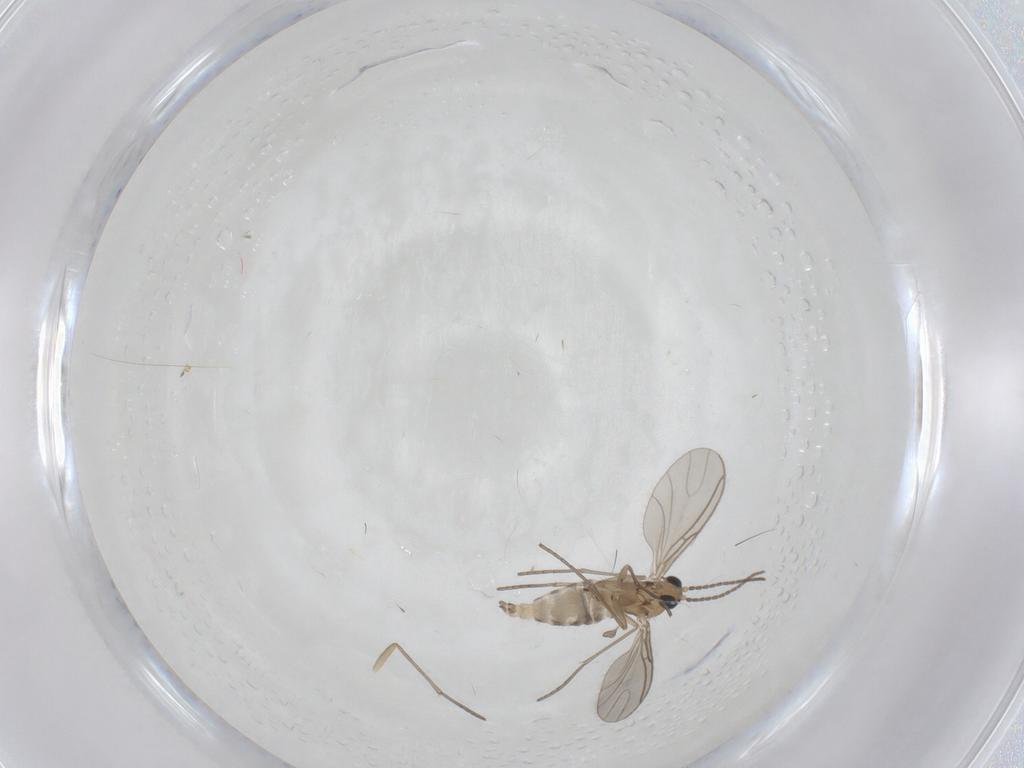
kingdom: Animalia
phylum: Arthropoda
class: Insecta
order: Diptera
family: Sciaridae
